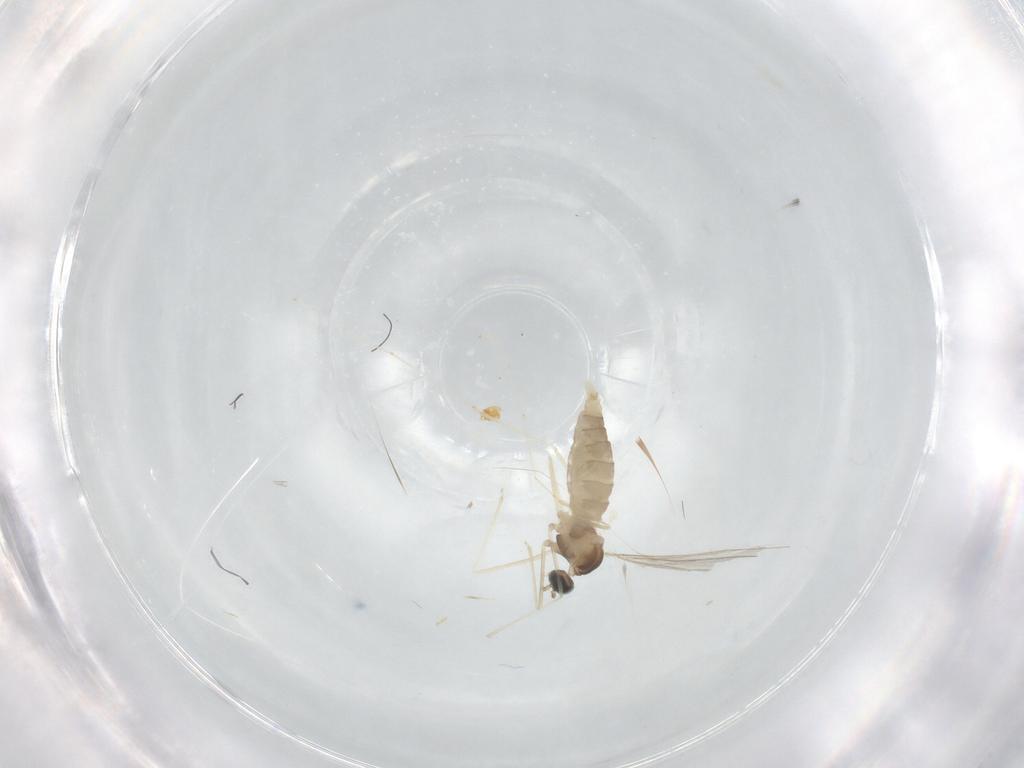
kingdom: Animalia
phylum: Arthropoda
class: Insecta
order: Diptera
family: Cecidomyiidae
